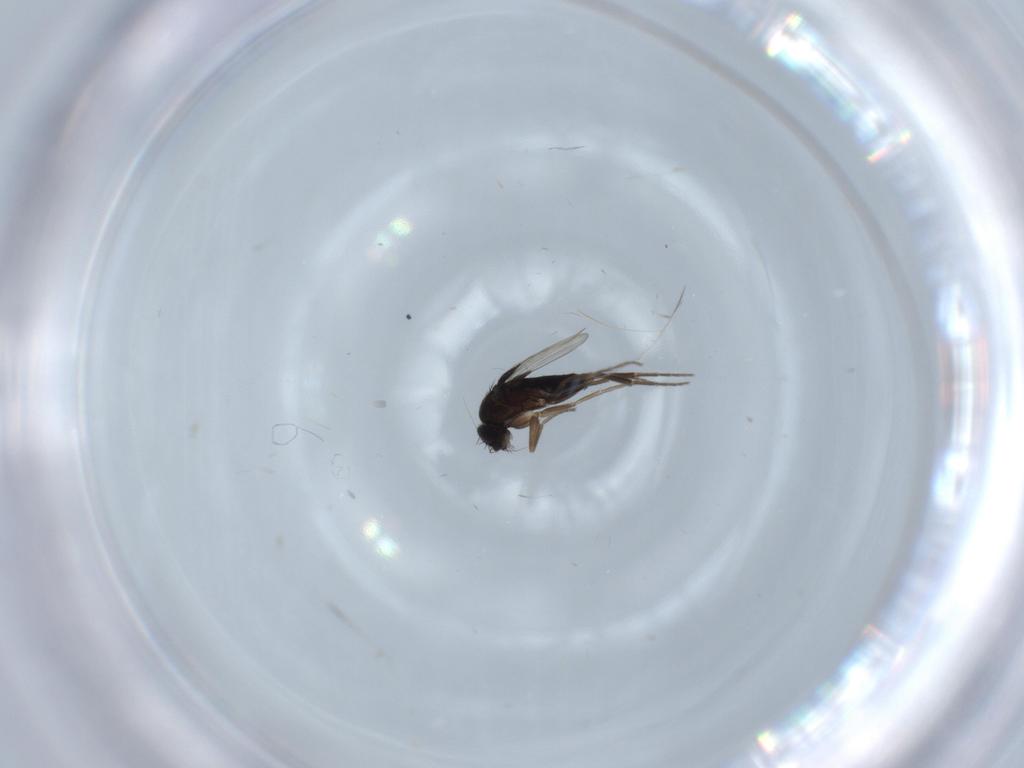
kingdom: Animalia
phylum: Arthropoda
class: Insecta
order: Diptera
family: Phoridae
